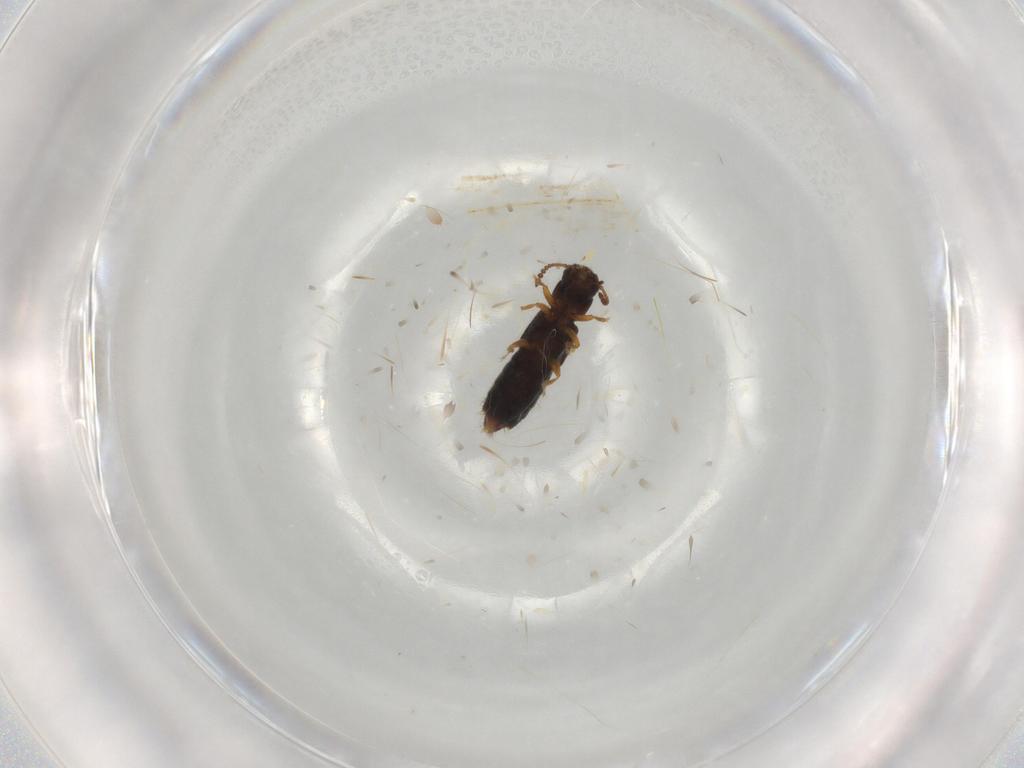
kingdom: Animalia
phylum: Arthropoda
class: Insecta
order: Coleoptera
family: Staphylinidae
